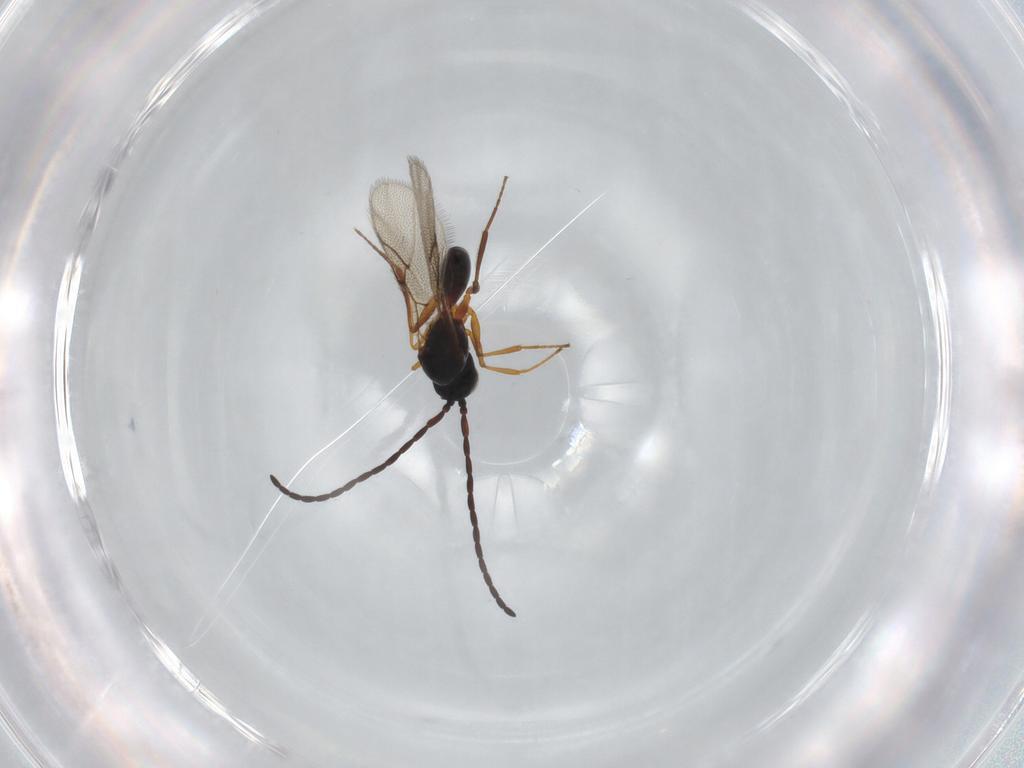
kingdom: Animalia
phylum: Arthropoda
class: Insecta
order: Hymenoptera
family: Figitidae
